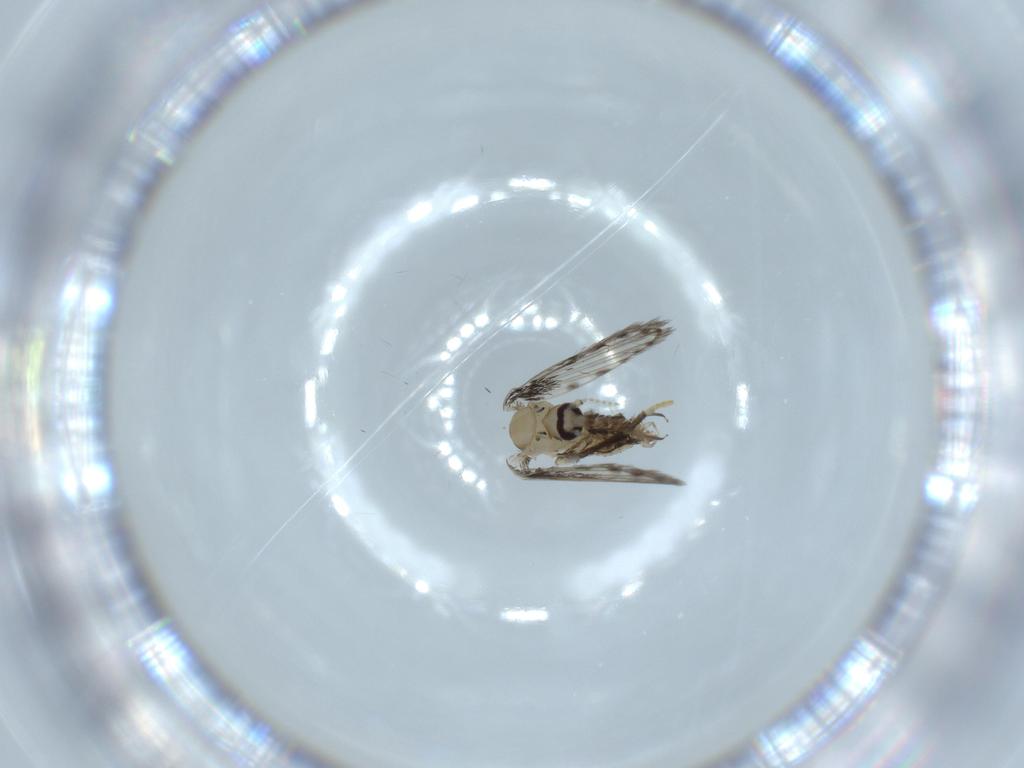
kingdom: Animalia
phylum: Arthropoda
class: Insecta
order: Diptera
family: Psychodidae
